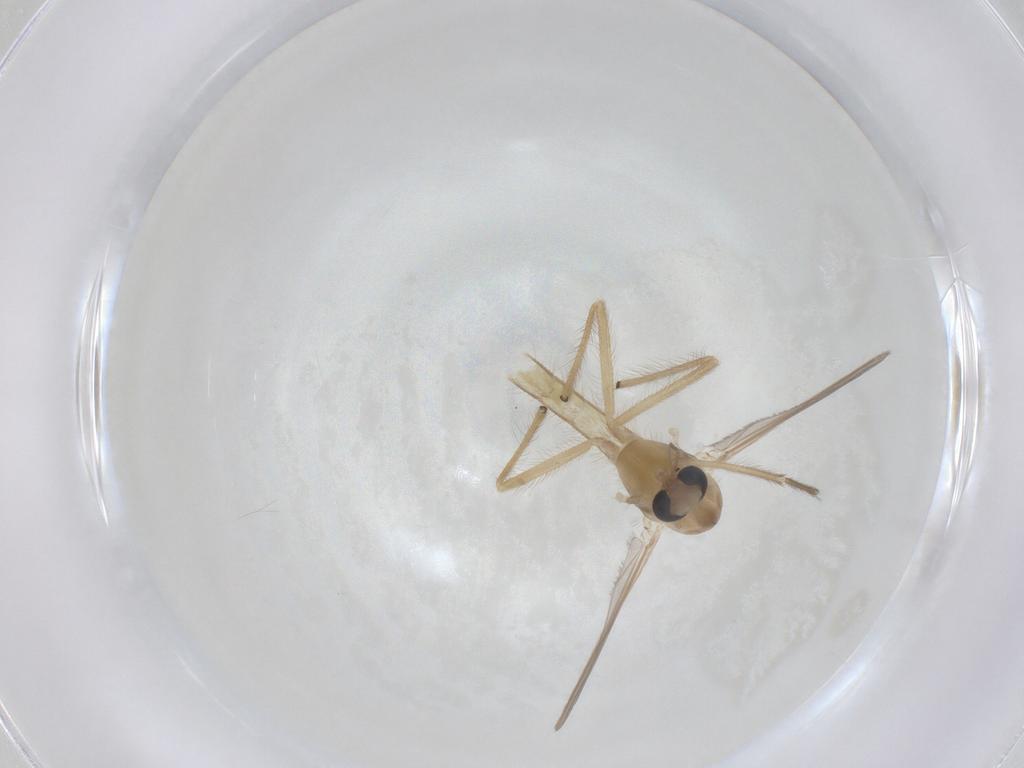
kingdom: Animalia
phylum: Arthropoda
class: Insecta
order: Diptera
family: Chironomidae
